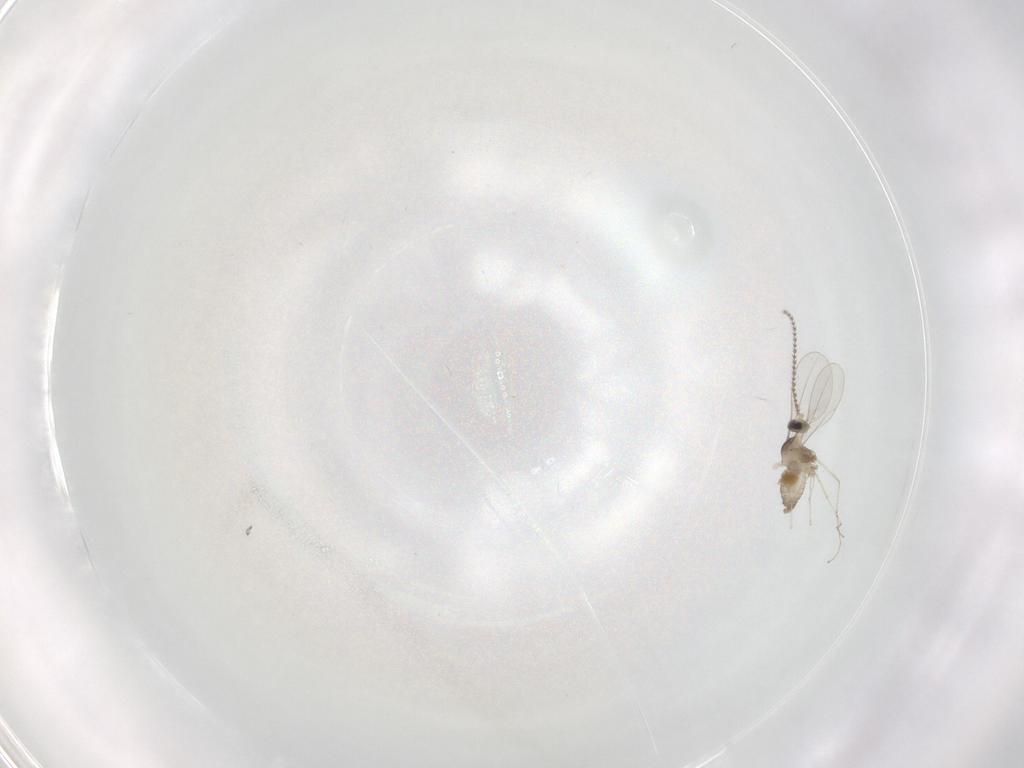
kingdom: Animalia
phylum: Arthropoda
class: Insecta
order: Diptera
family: Cecidomyiidae
